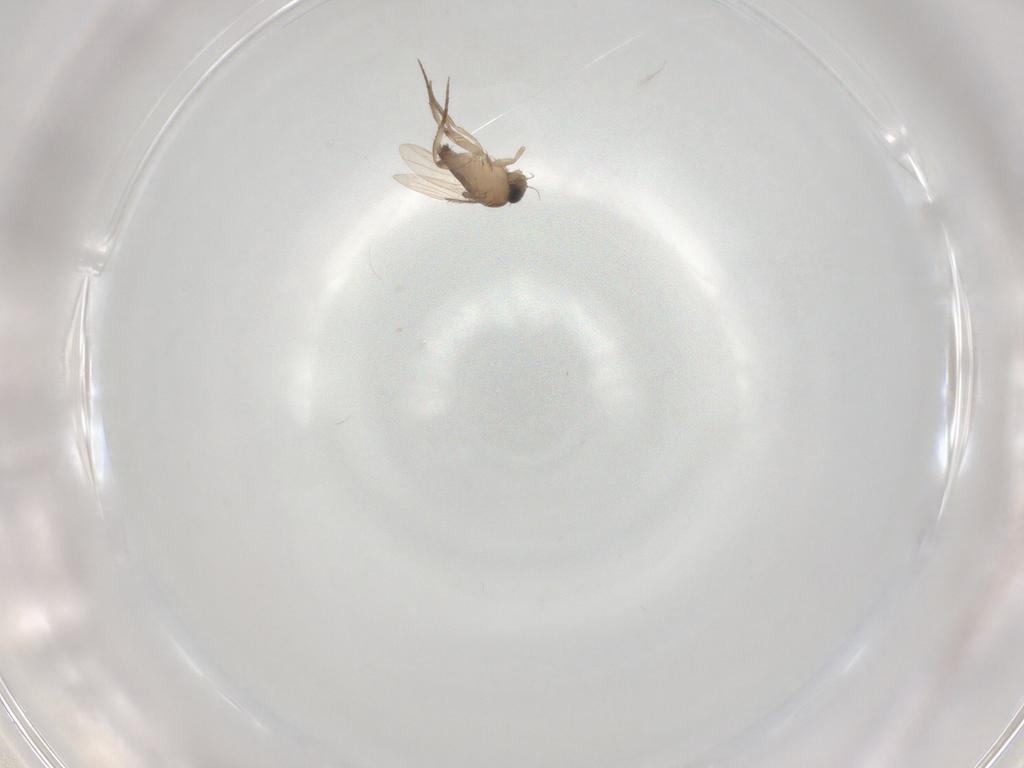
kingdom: Animalia
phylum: Arthropoda
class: Insecta
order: Diptera
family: Phoridae
